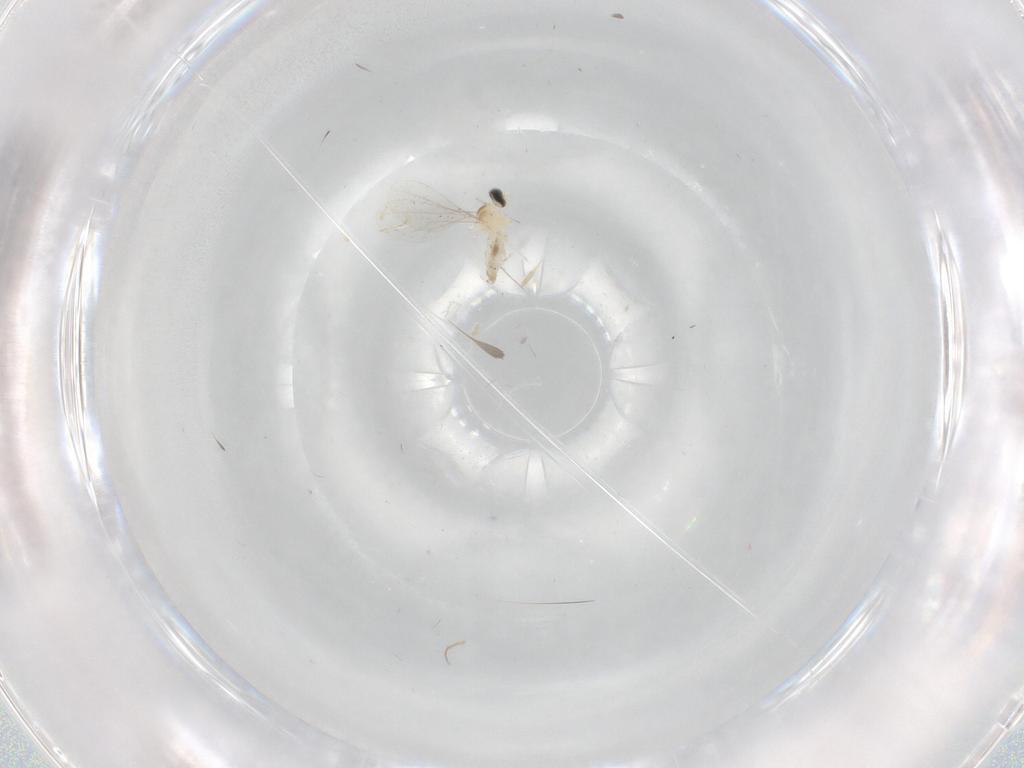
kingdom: Animalia
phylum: Arthropoda
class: Insecta
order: Diptera
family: Cecidomyiidae
